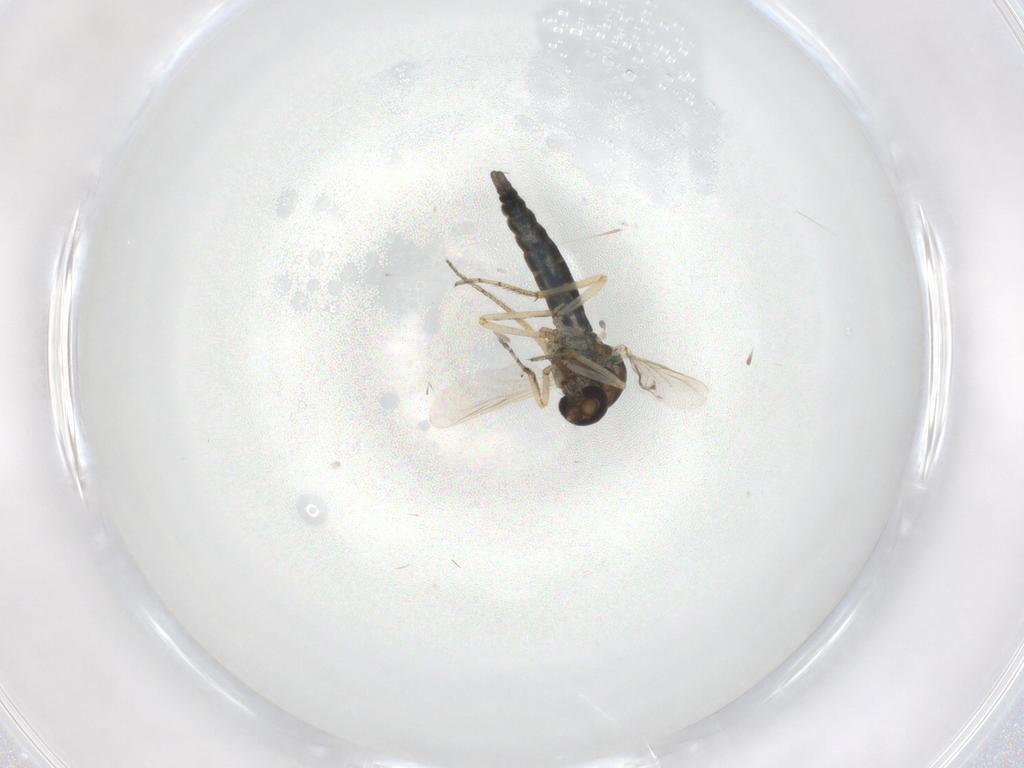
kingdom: Animalia
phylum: Arthropoda
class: Insecta
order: Diptera
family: Ceratopogonidae
